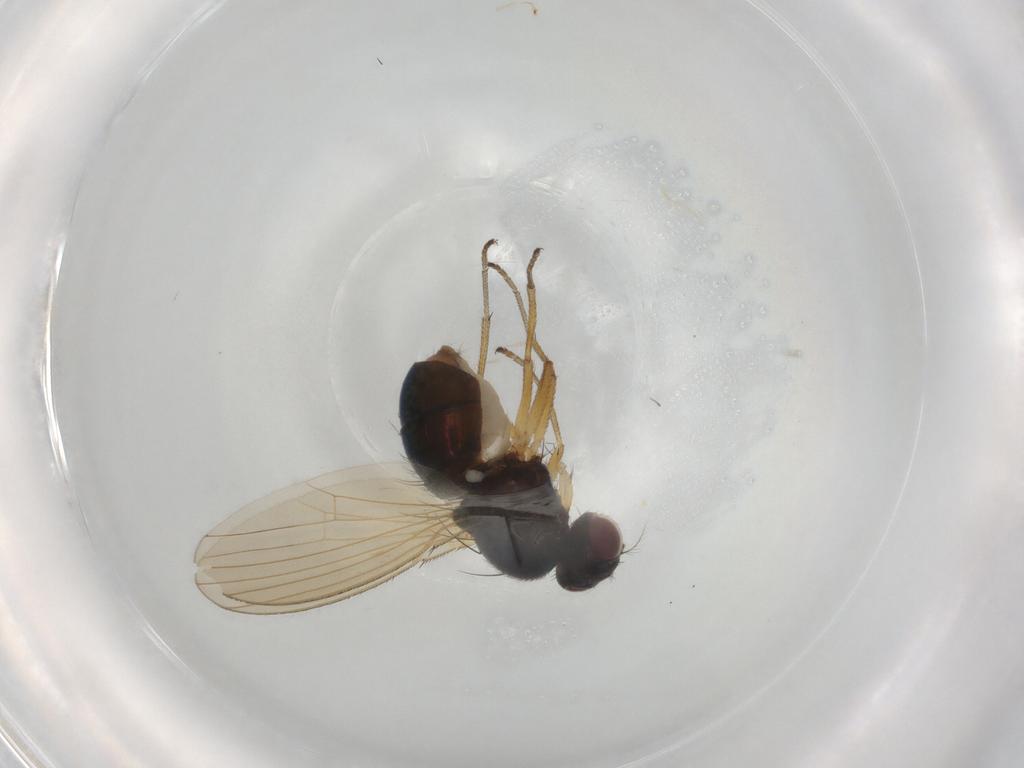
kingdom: Animalia
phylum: Arthropoda
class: Insecta
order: Diptera
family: Camillidae
